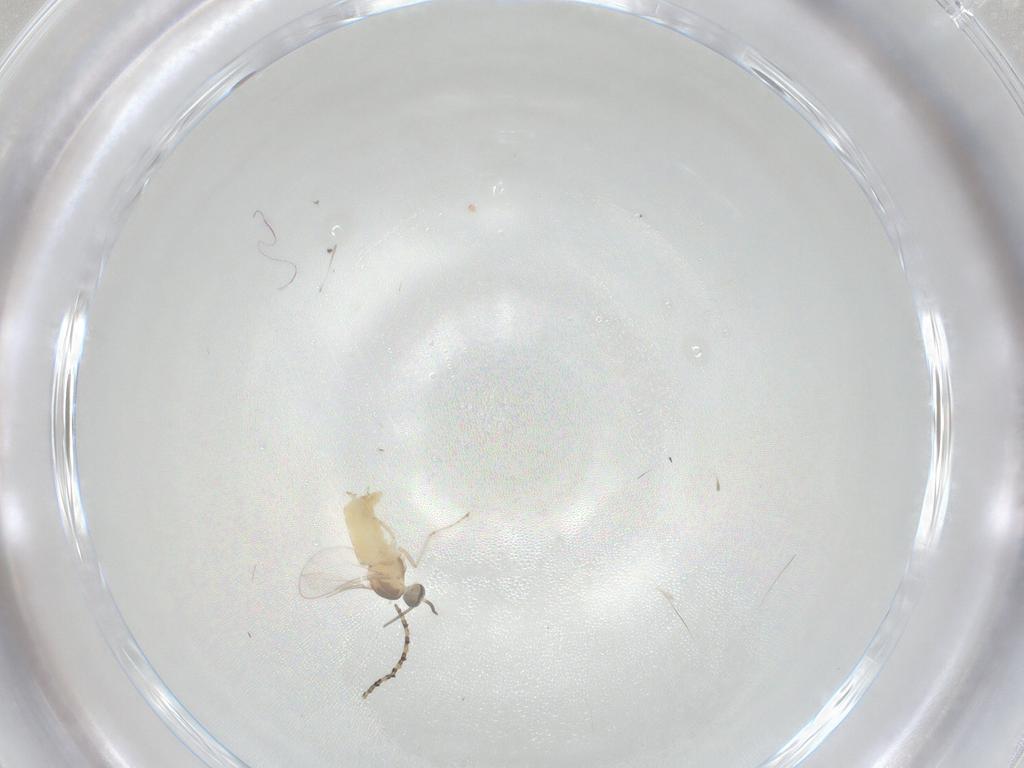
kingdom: Animalia
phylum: Arthropoda
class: Insecta
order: Diptera
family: Cecidomyiidae
